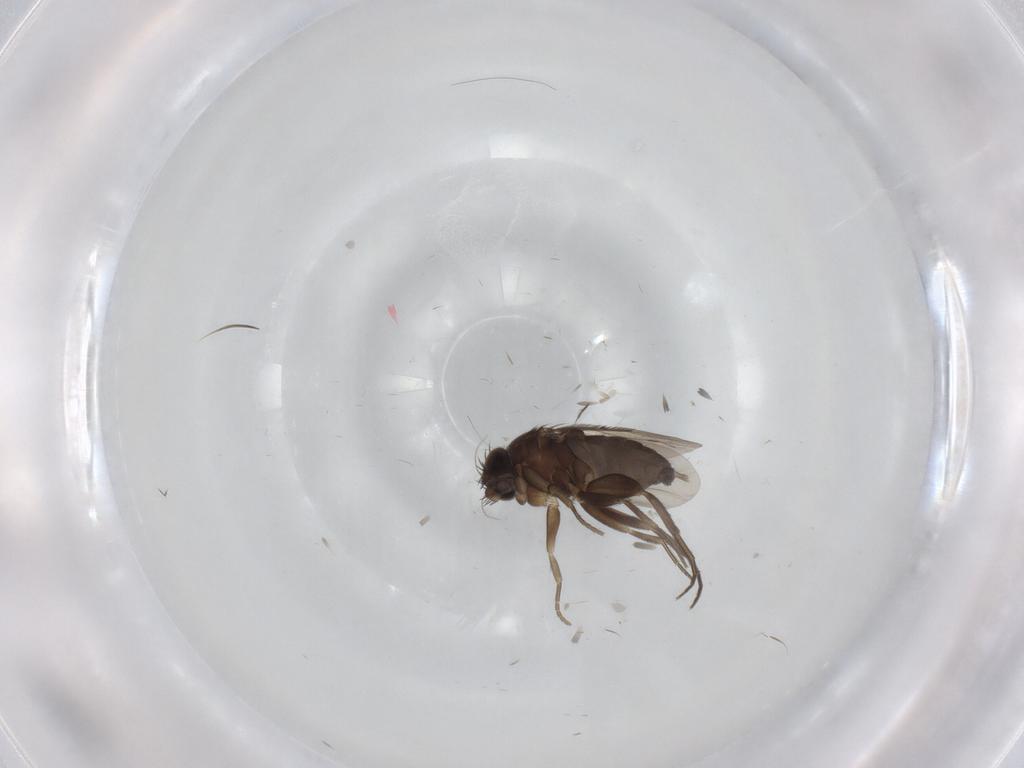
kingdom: Animalia
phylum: Arthropoda
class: Insecta
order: Diptera
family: Phoridae
